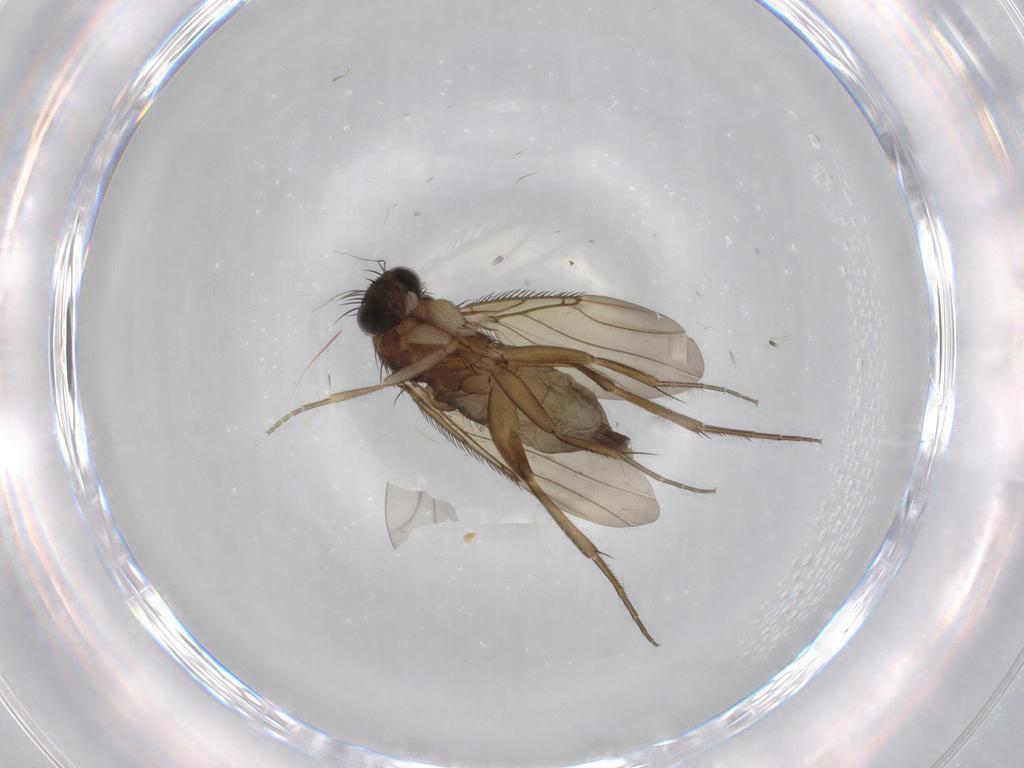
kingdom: Animalia
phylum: Arthropoda
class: Insecta
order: Diptera
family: Phoridae
